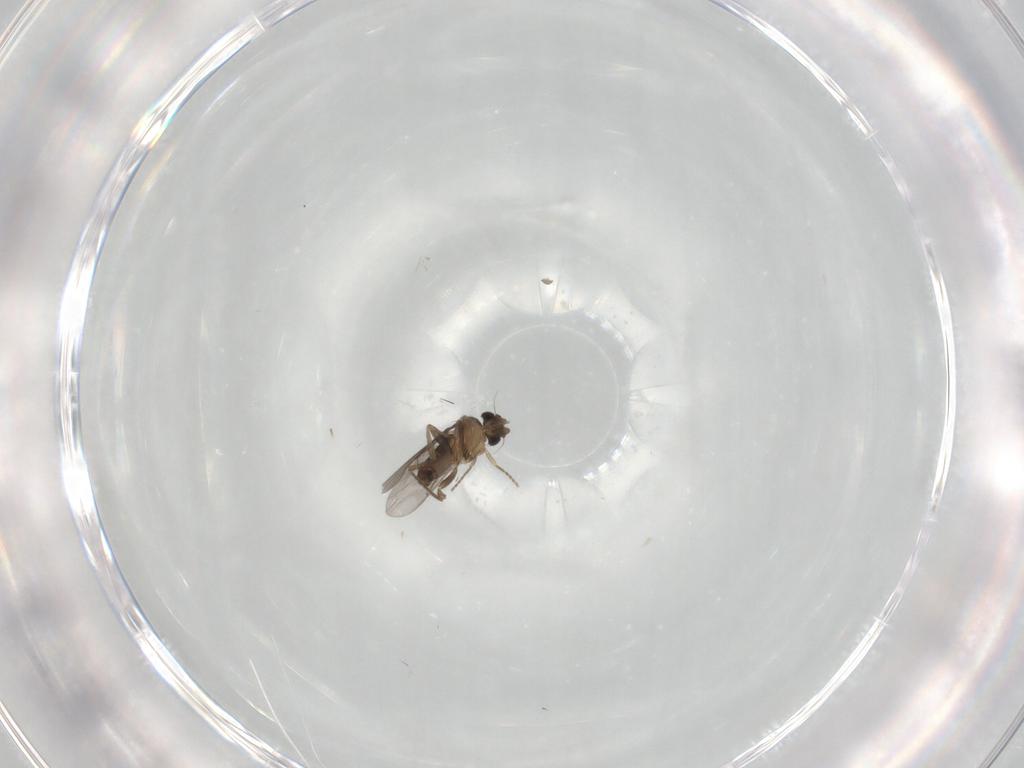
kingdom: Animalia
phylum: Arthropoda
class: Insecta
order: Diptera
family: Phoridae
